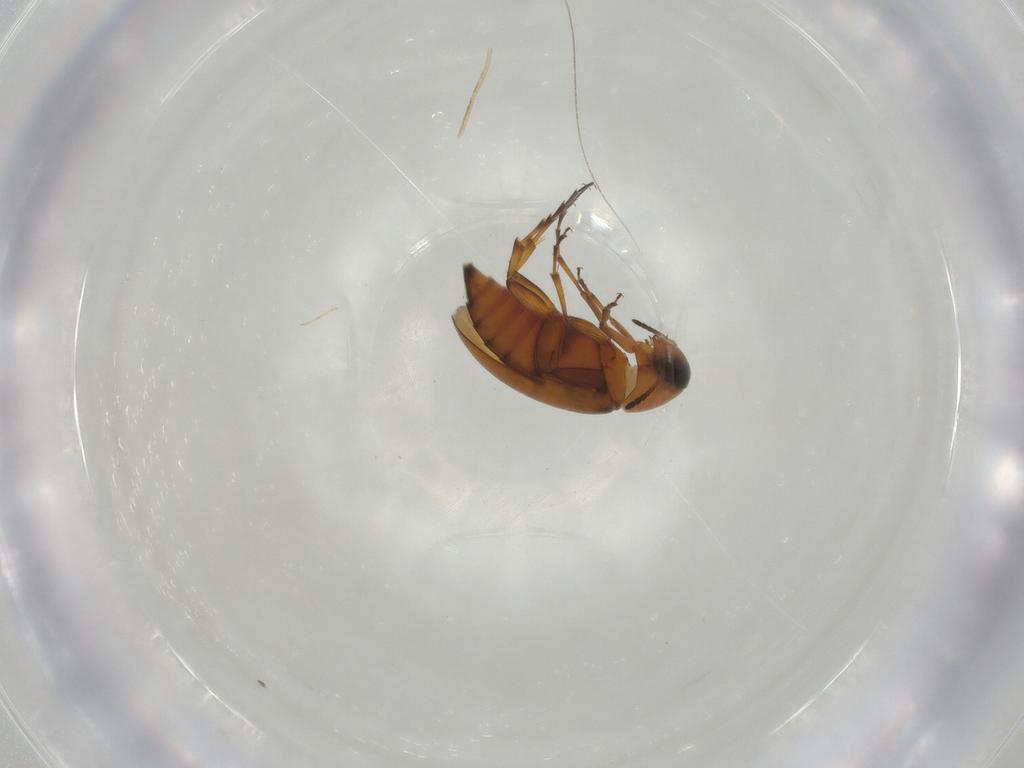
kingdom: Animalia
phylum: Arthropoda
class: Insecta
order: Coleoptera
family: Scraptiidae
